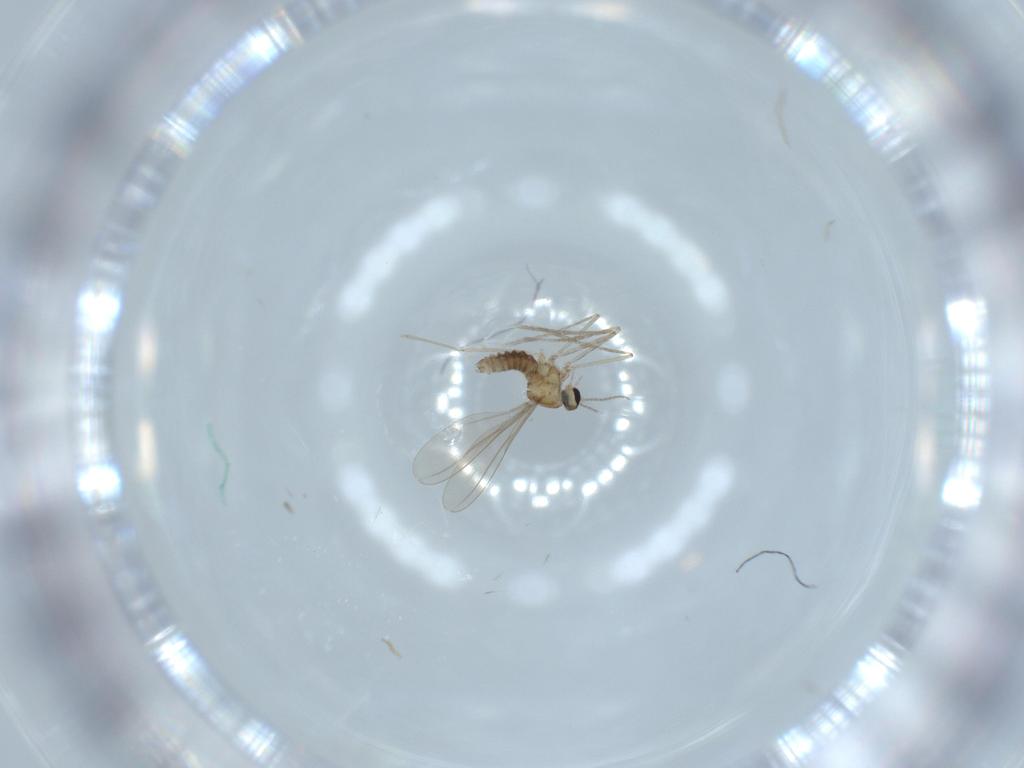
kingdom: Animalia
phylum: Arthropoda
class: Insecta
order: Diptera
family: Cecidomyiidae
